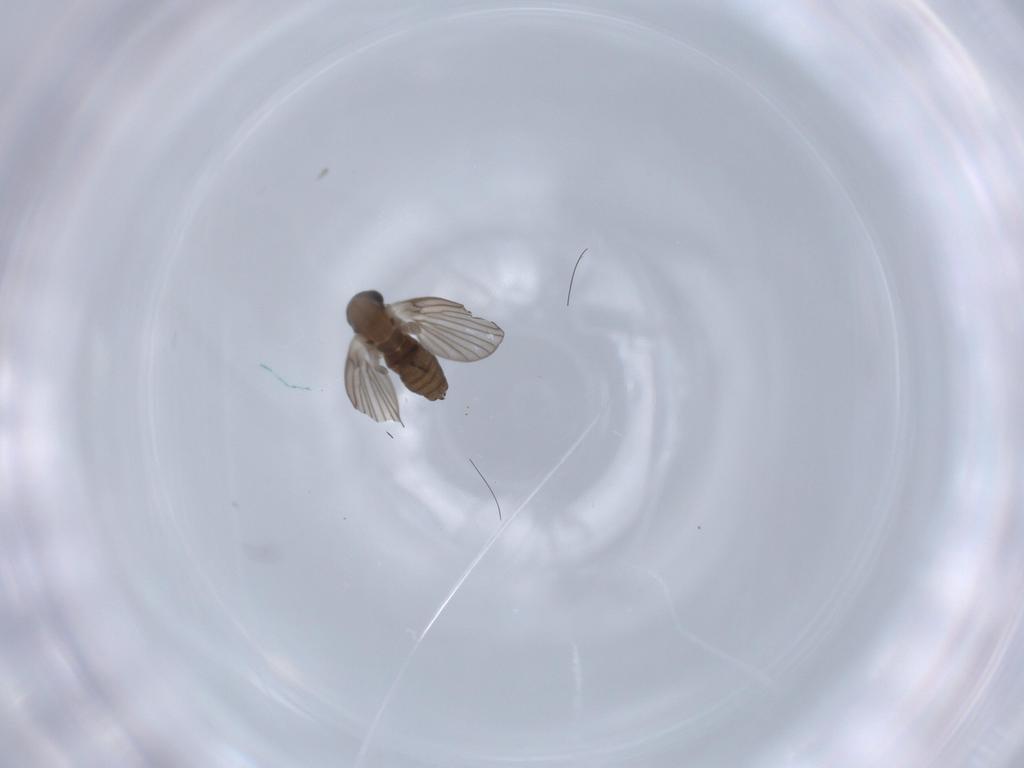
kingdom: Animalia
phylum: Arthropoda
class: Insecta
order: Diptera
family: Psychodidae
